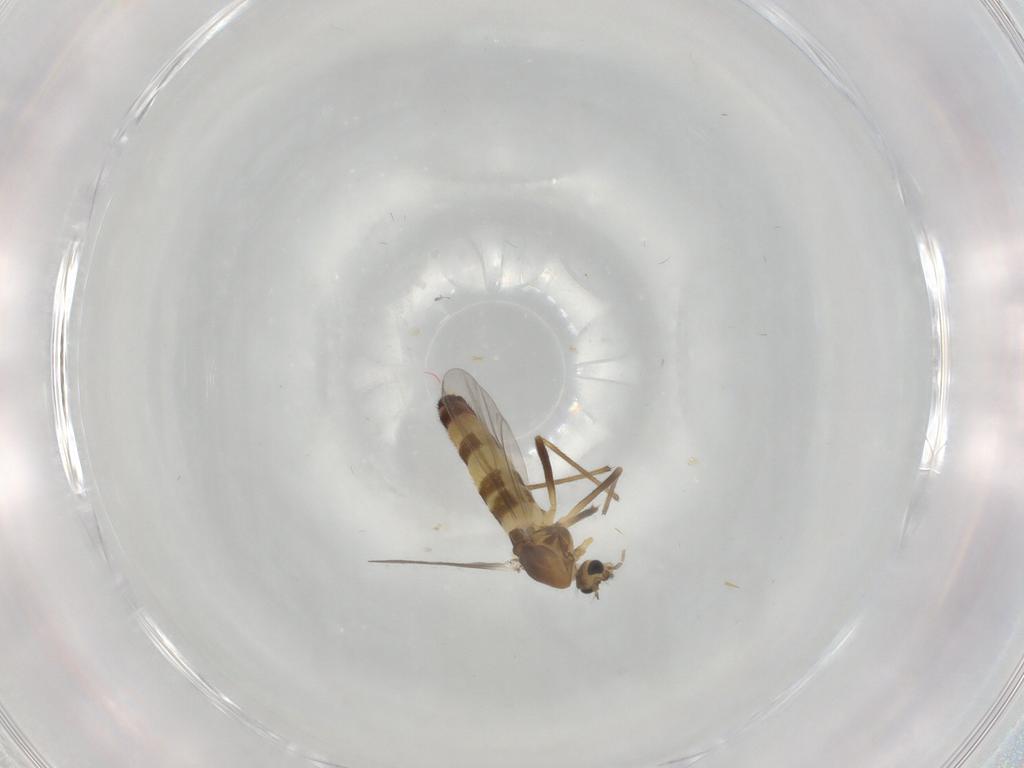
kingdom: Animalia
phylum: Arthropoda
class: Insecta
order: Diptera
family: Chironomidae
